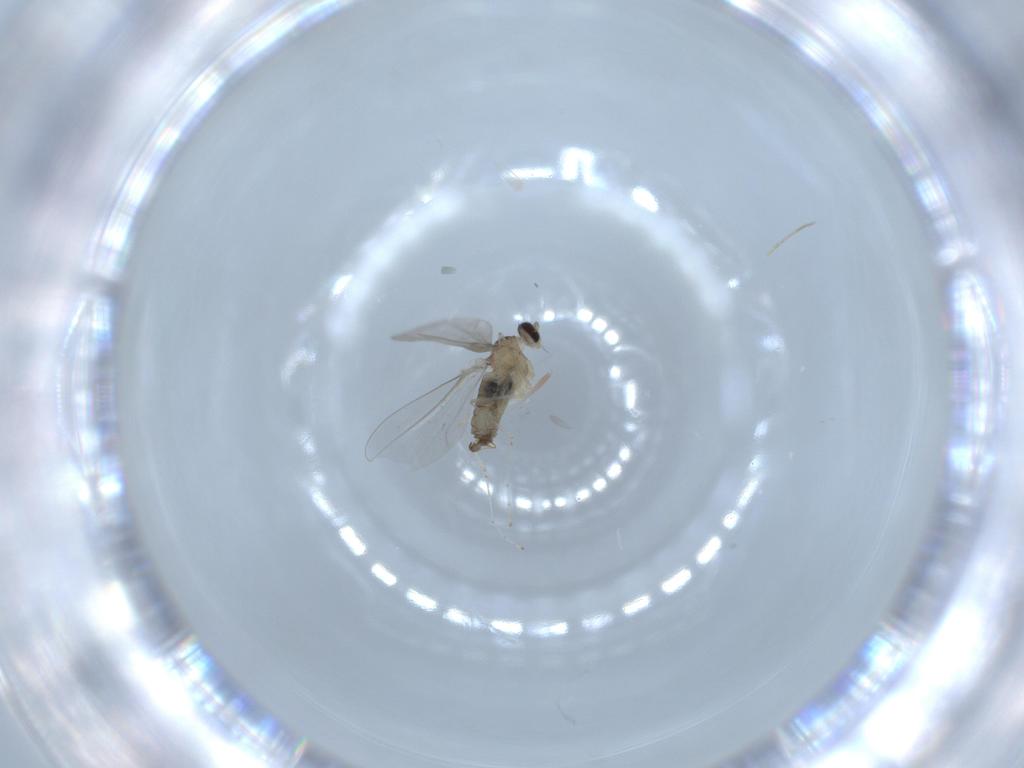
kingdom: Animalia
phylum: Arthropoda
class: Insecta
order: Diptera
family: Cecidomyiidae
